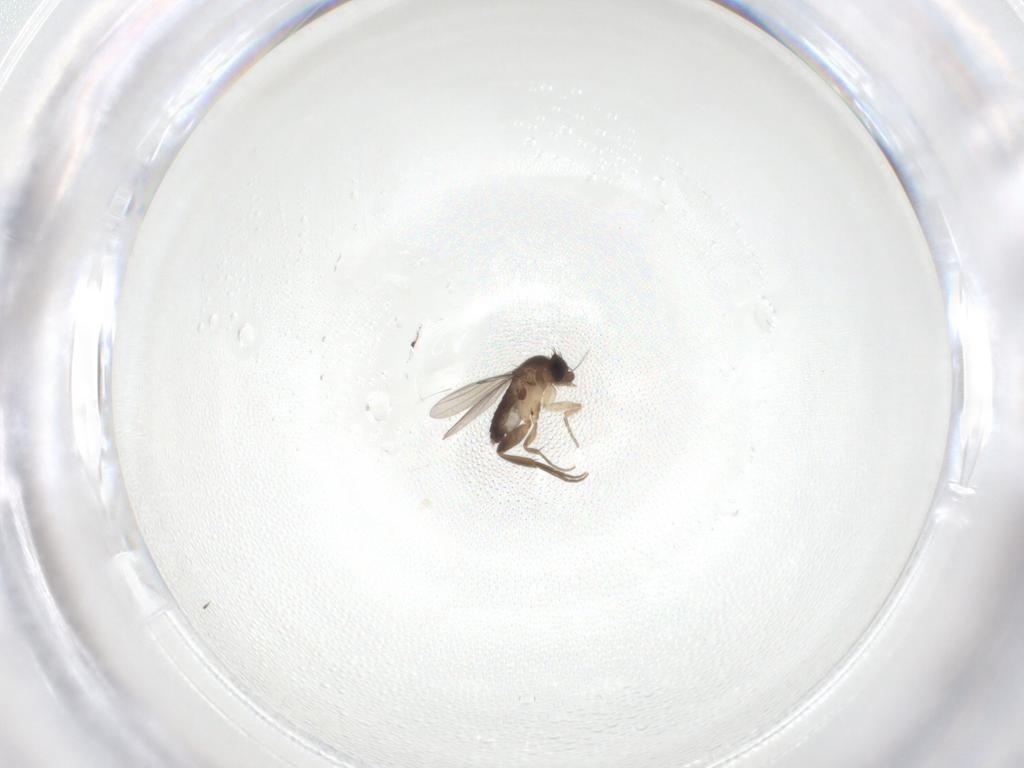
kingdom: Animalia
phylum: Arthropoda
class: Insecta
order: Diptera
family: Phoridae
